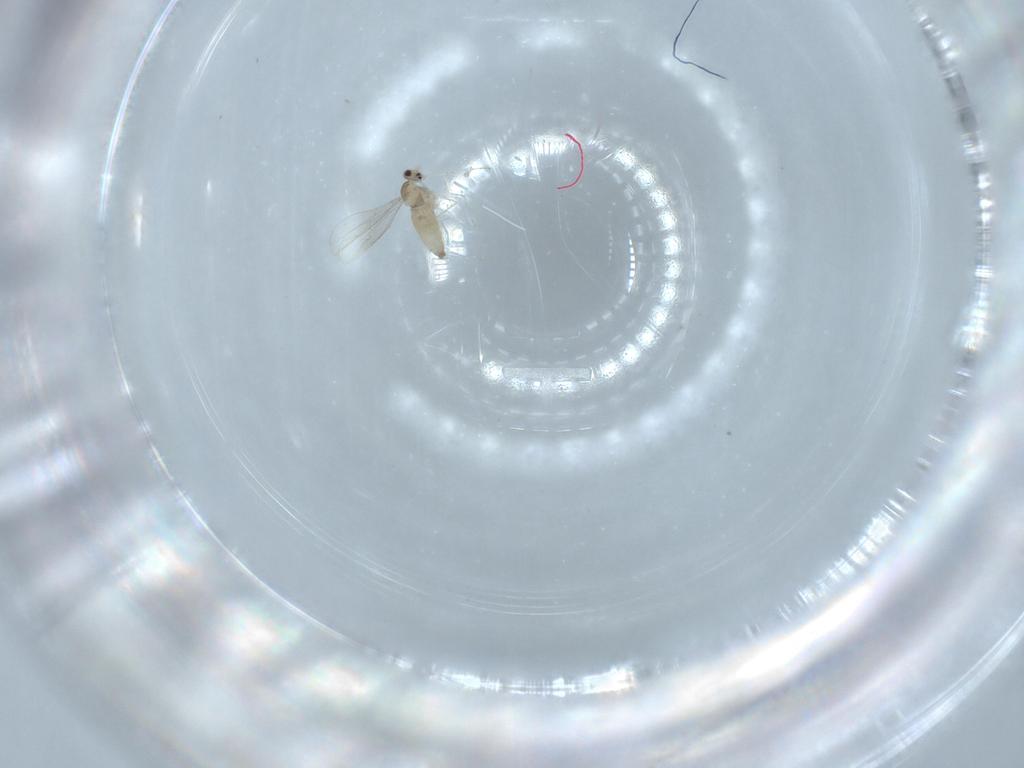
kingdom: Animalia
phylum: Arthropoda
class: Insecta
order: Diptera
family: Cecidomyiidae
